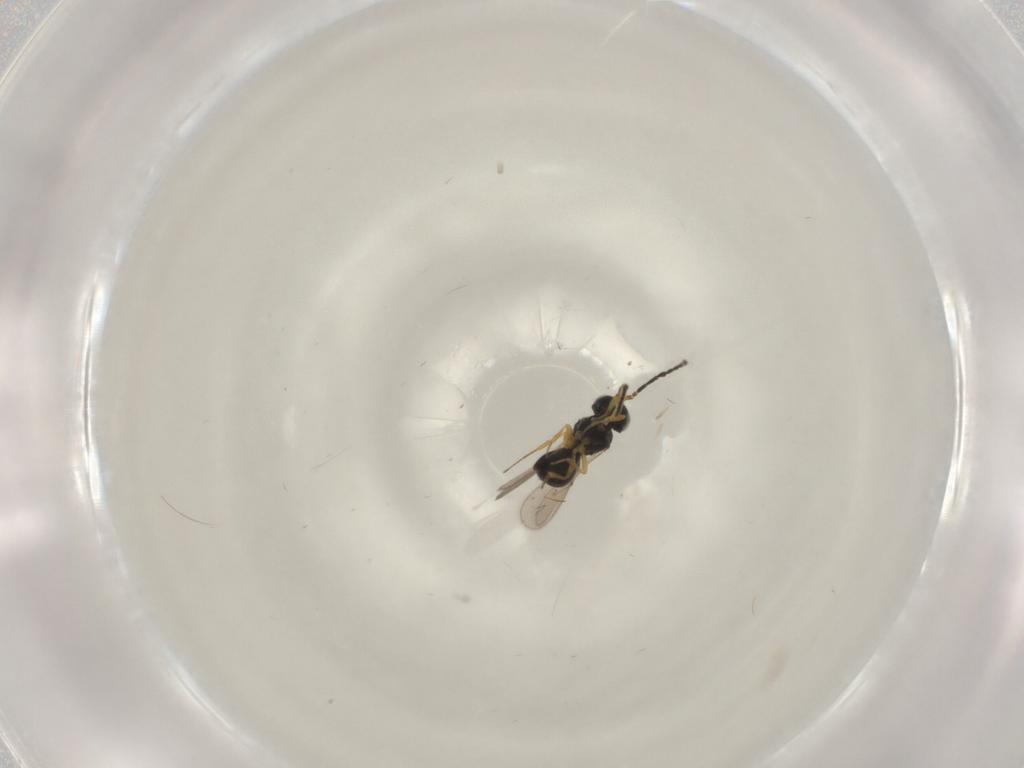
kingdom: Animalia
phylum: Arthropoda
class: Insecta
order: Hymenoptera
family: Scelionidae
